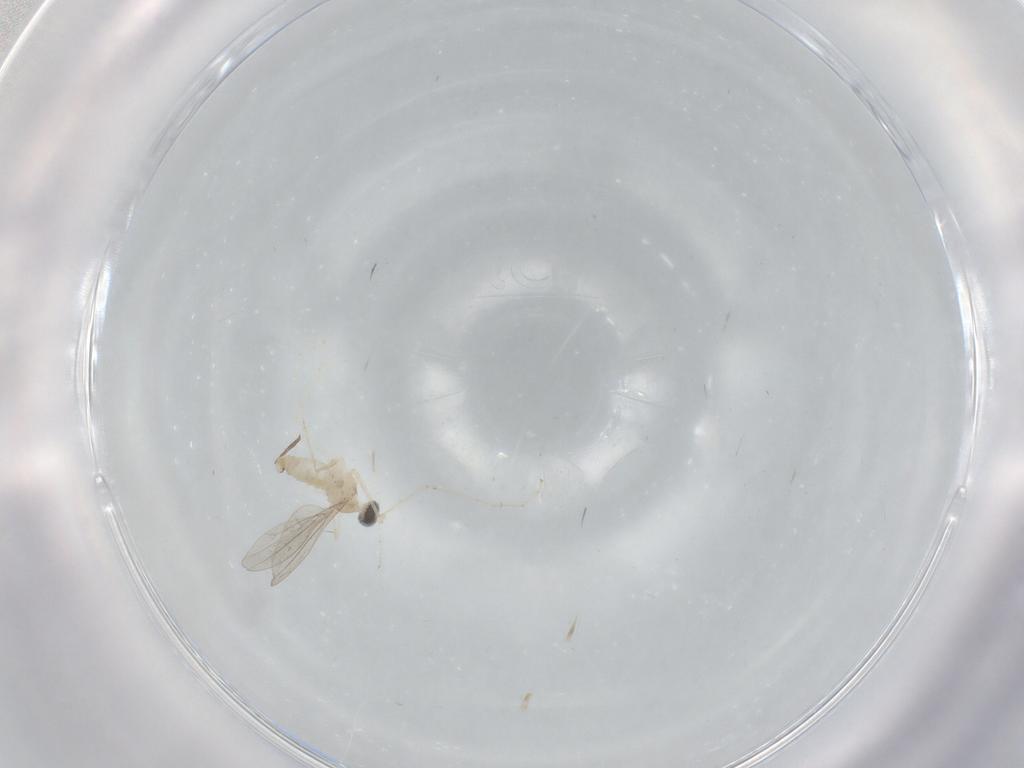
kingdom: Animalia
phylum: Arthropoda
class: Insecta
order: Diptera
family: Cecidomyiidae
